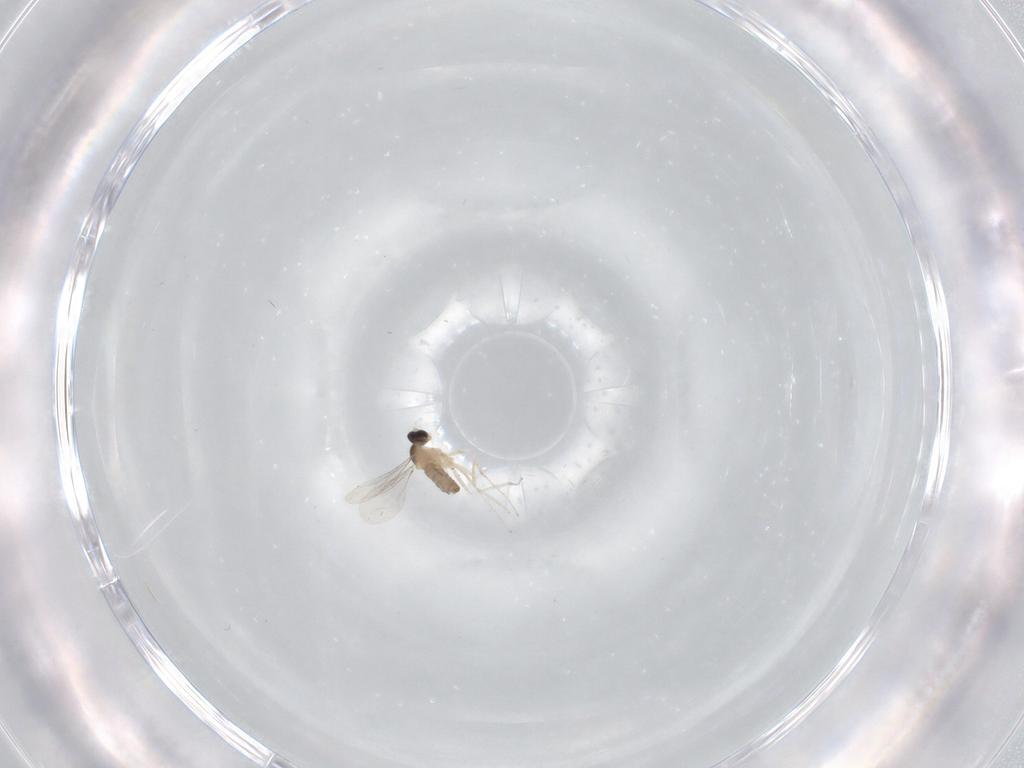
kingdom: Animalia
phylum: Arthropoda
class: Insecta
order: Diptera
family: Cecidomyiidae
